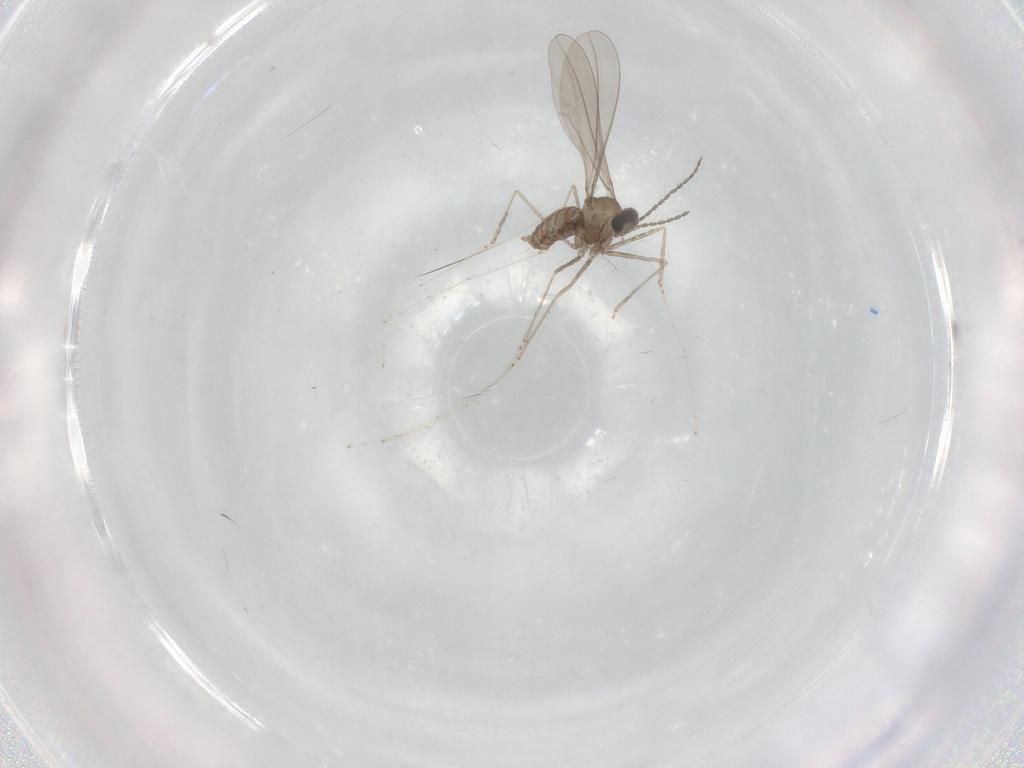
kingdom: Animalia
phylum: Arthropoda
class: Insecta
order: Diptera
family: Cecidomyiidae
